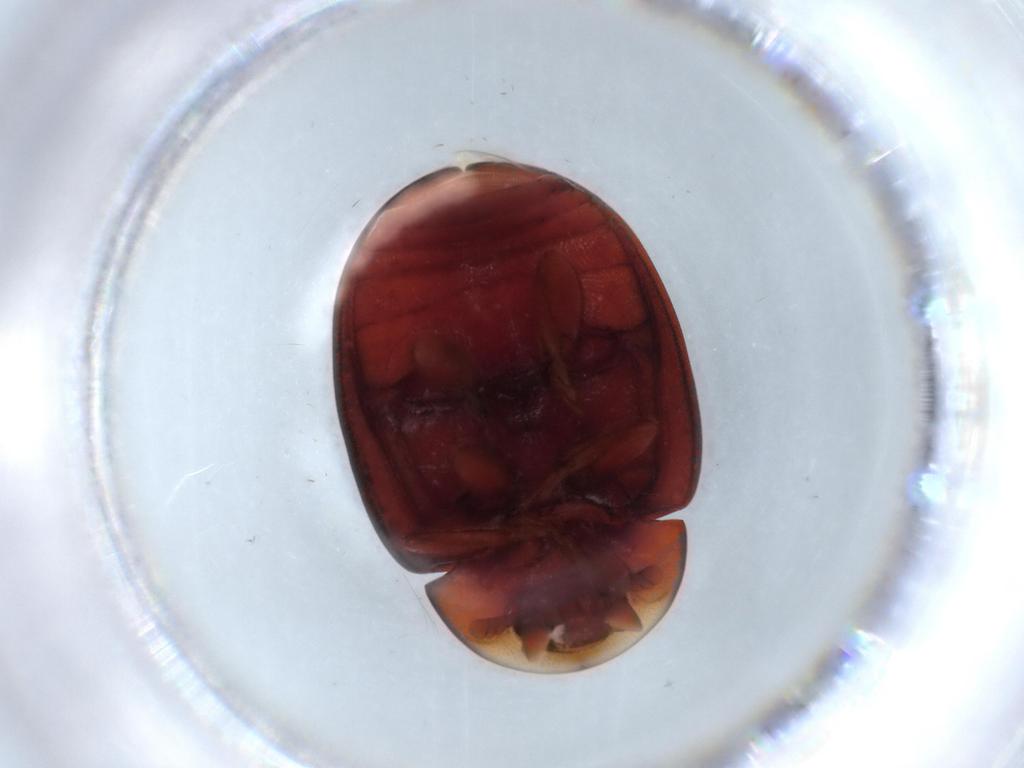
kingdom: Animalia
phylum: Arthropoda
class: Insecta
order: Coleoptera
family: Coccinellidae
